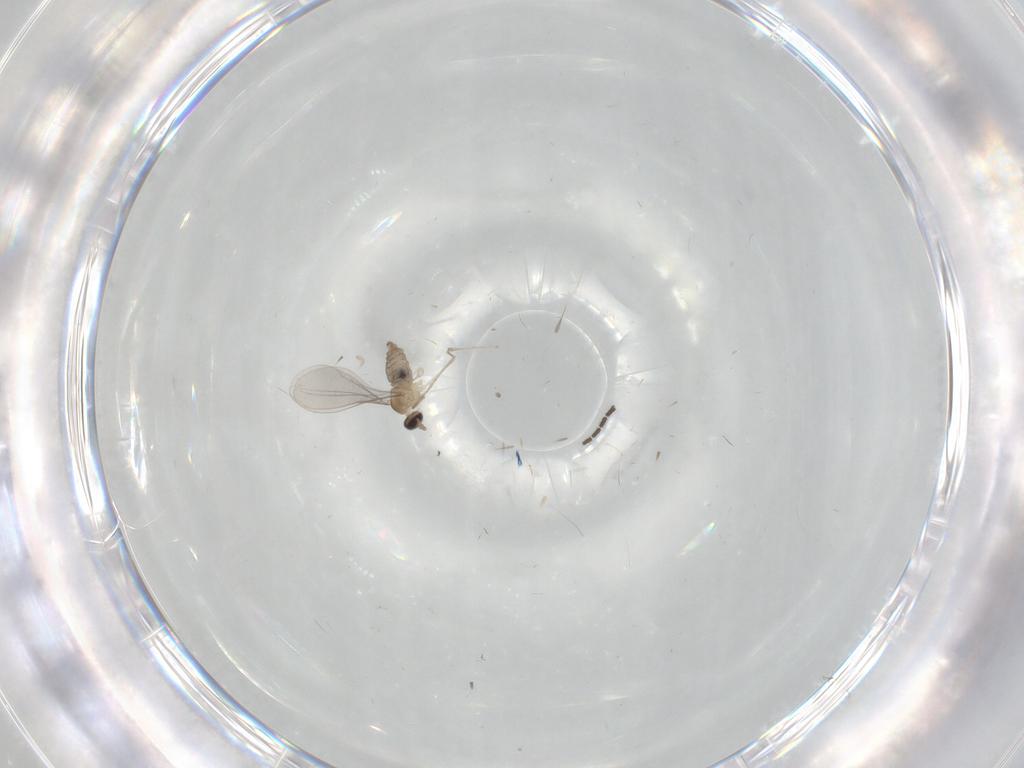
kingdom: Animalia
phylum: Arthropoda
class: Insecta
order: Diptera
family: Cecidomyiidae
